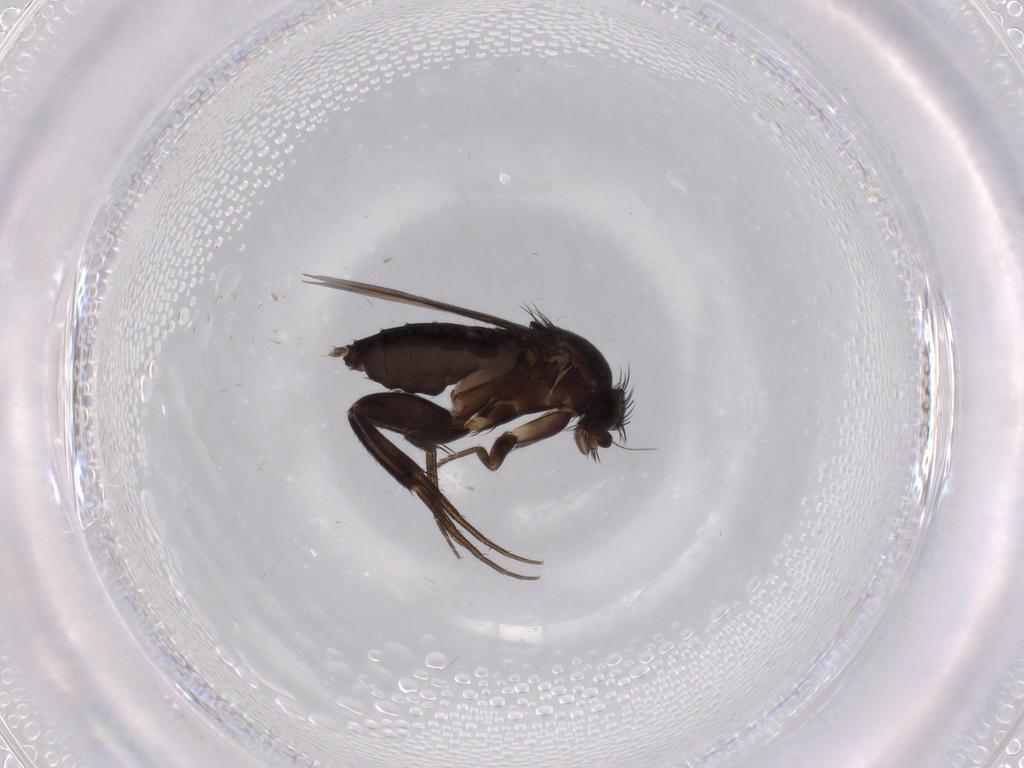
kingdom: Animalia
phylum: Arthropoda
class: Insecta
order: Diptera
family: Phoridae
